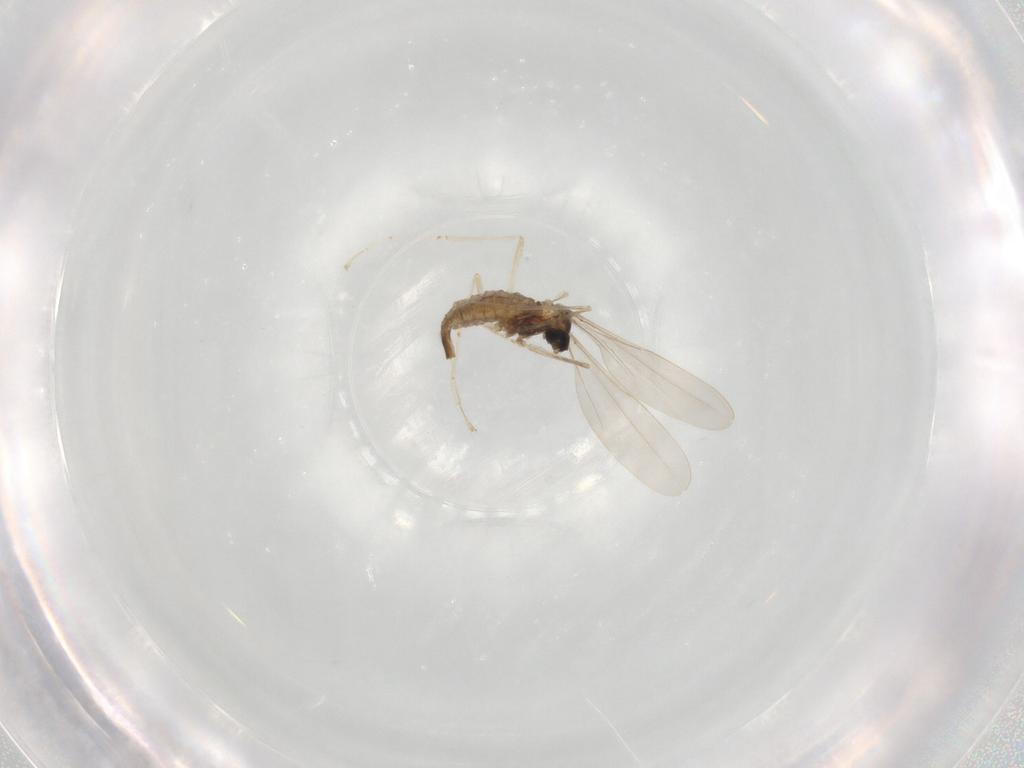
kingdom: Animalia
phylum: Arthropoda
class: Insecta
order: Diptera
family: Cecidomyiidae
